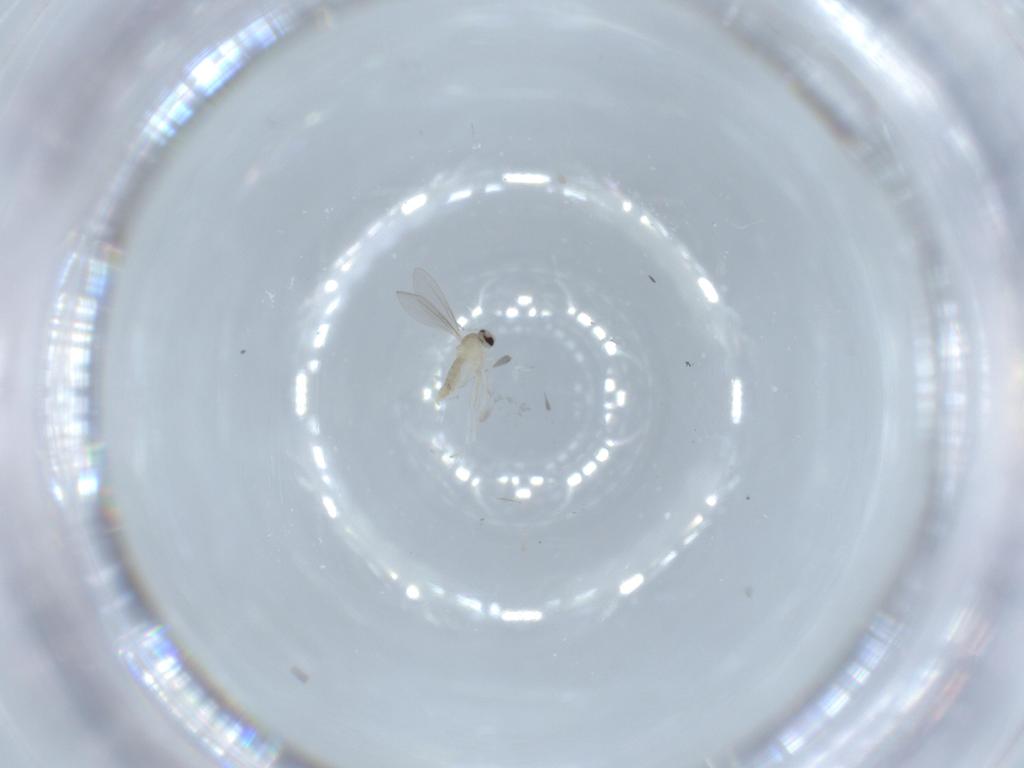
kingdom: Animalia
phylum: Arthropoda
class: Insecta
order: Diptera
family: Cecidomyiidae
